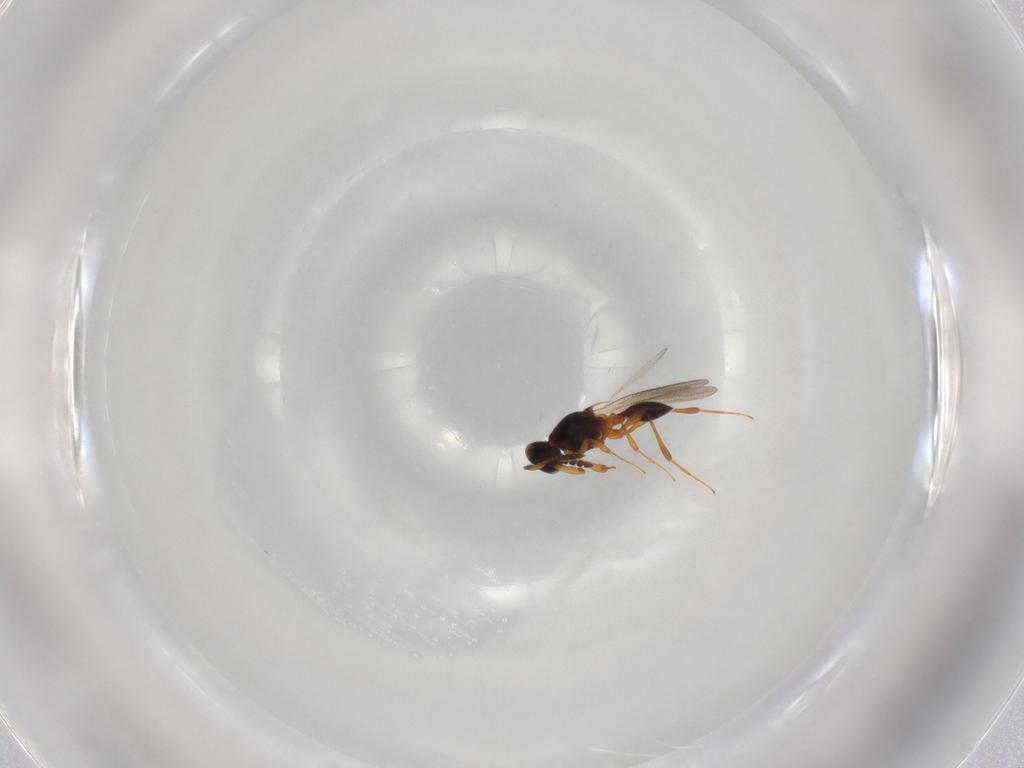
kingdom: Animalia
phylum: Arthropoda
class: Insecta
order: Hymenoptera
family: Platygastridae
